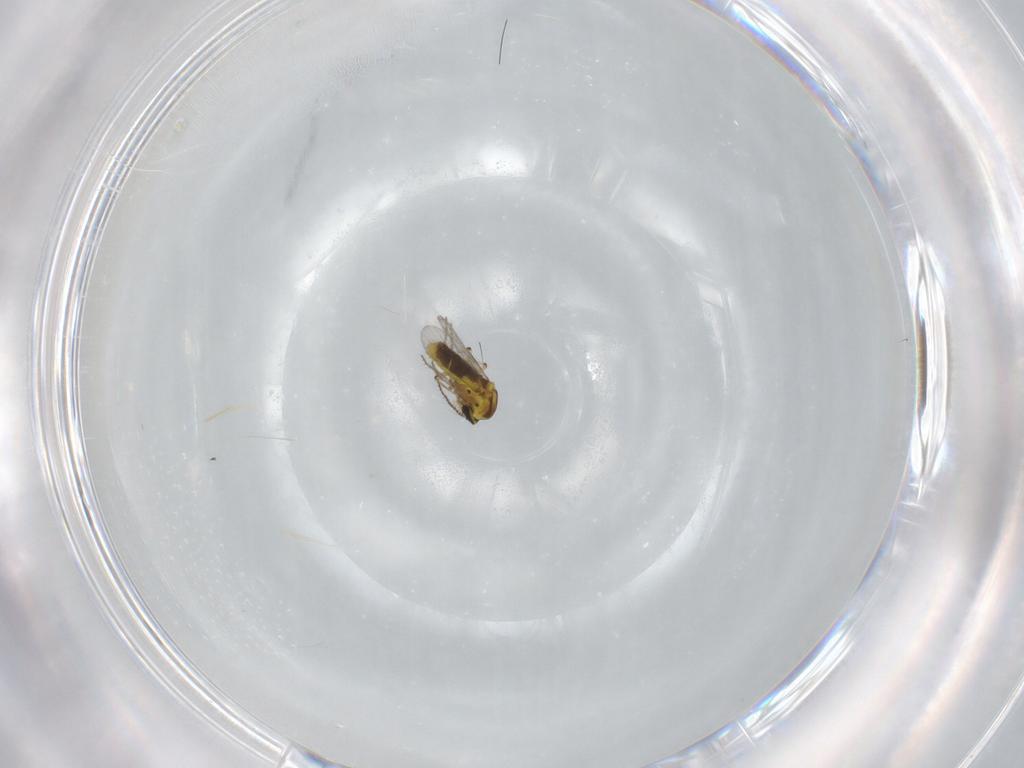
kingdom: Animalia
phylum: Arthropoda
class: Insecta
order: Diptera
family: Ceratopogonidae
